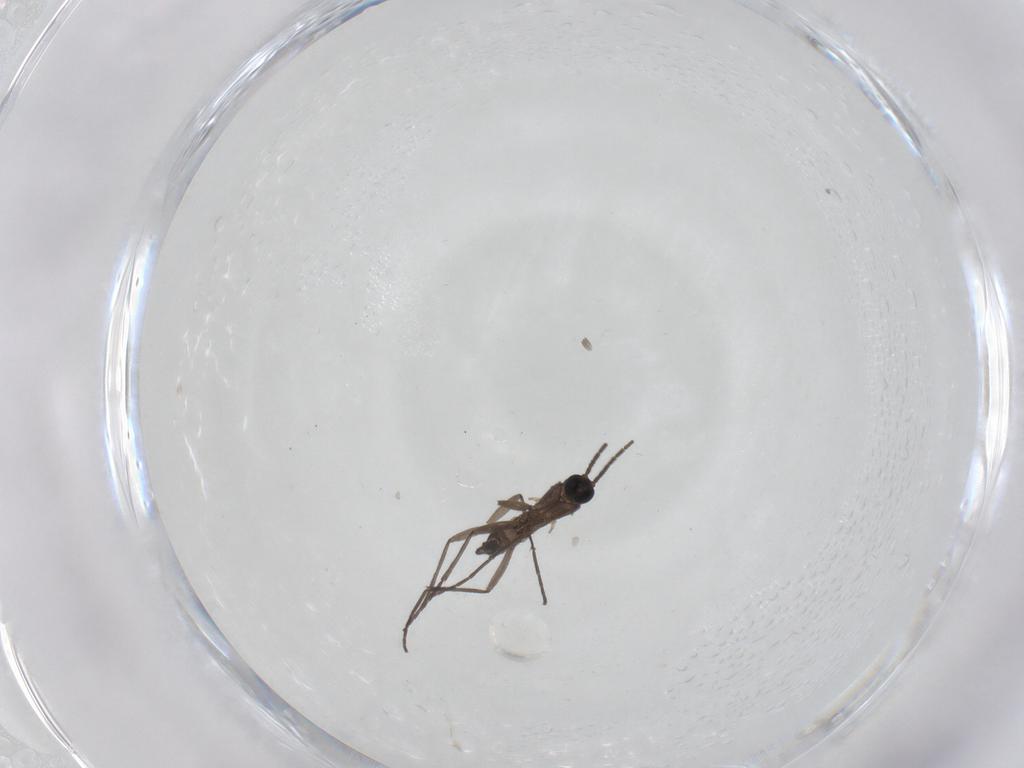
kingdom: Animalia
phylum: Arthropoda
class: Insecta
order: Diptera
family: Sciaridae
